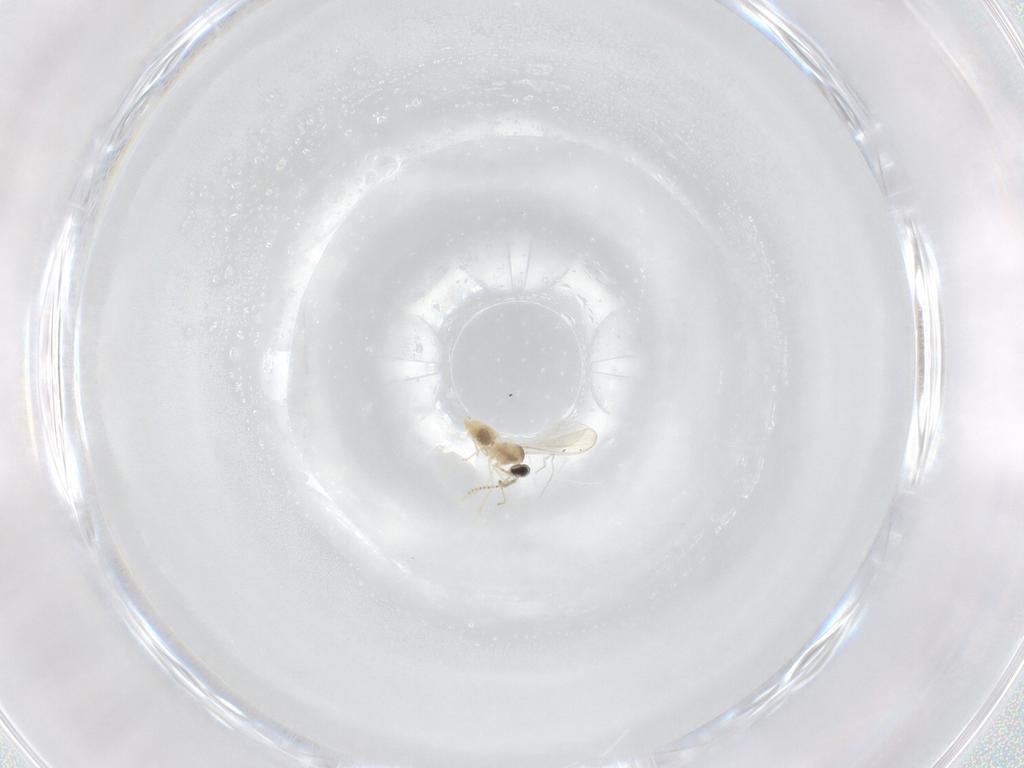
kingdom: Animalia
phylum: Arthropoda
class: Insecta
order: Diptera
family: Cecidomyiidae
